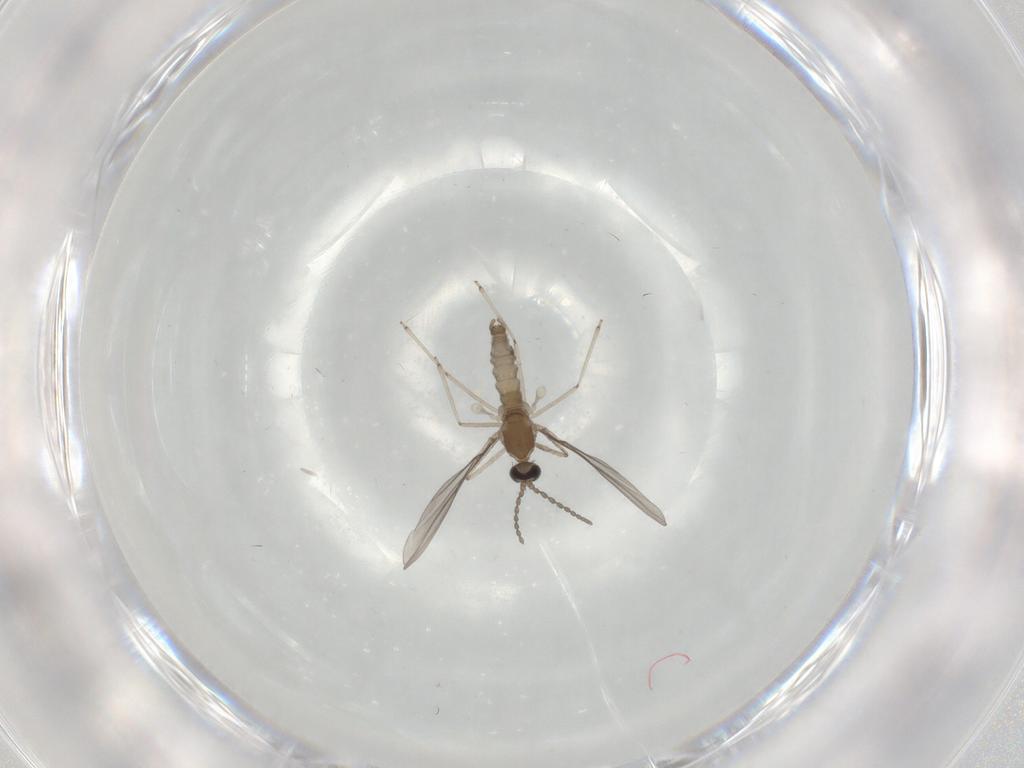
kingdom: Animalia
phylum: Arthropoda
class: Insecta
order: Diptera
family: Cecidomyiidae
